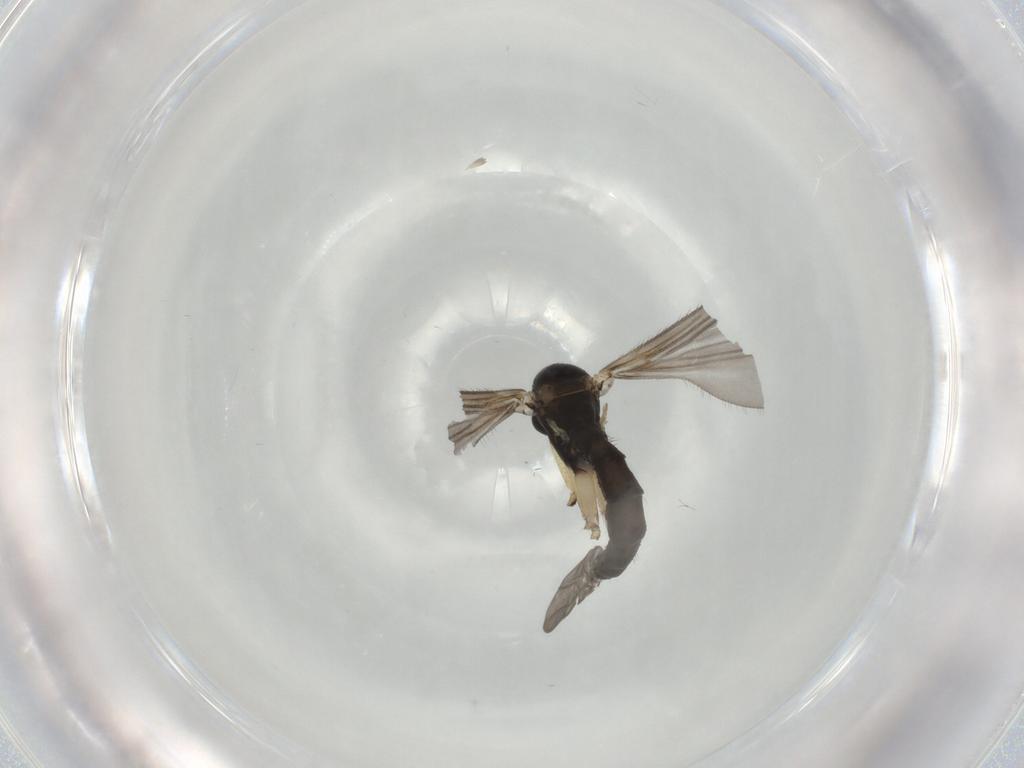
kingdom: Animalia
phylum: Arthropoda
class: Insecta
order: Diptera
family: Sciaridae
